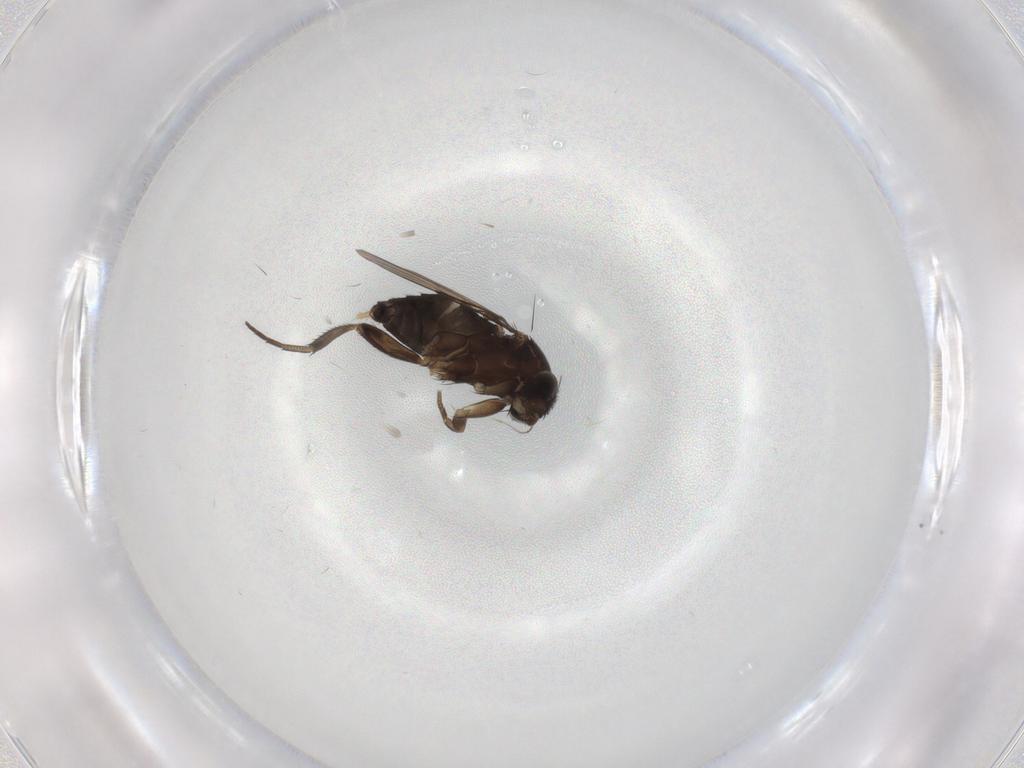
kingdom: Animalia
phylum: Arthropoda
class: Insecta
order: Diptera
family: Phoridae
